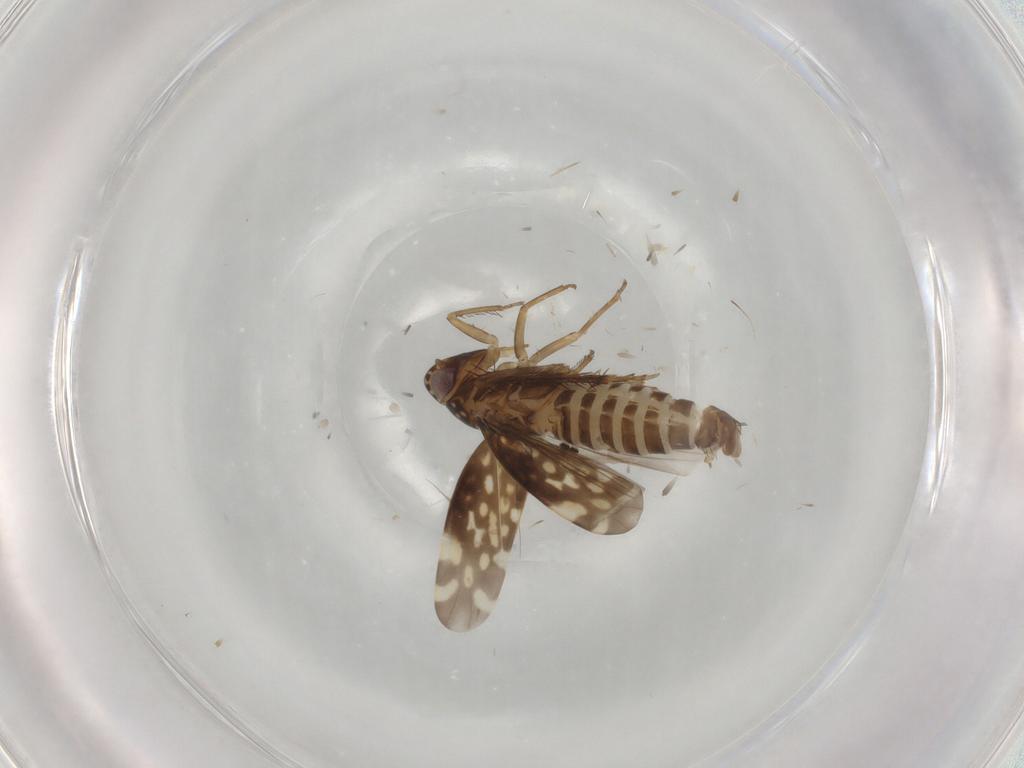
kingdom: Animalia
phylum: Arthropoda
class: Insecta
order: Hemiptera
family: Cicadellidae
